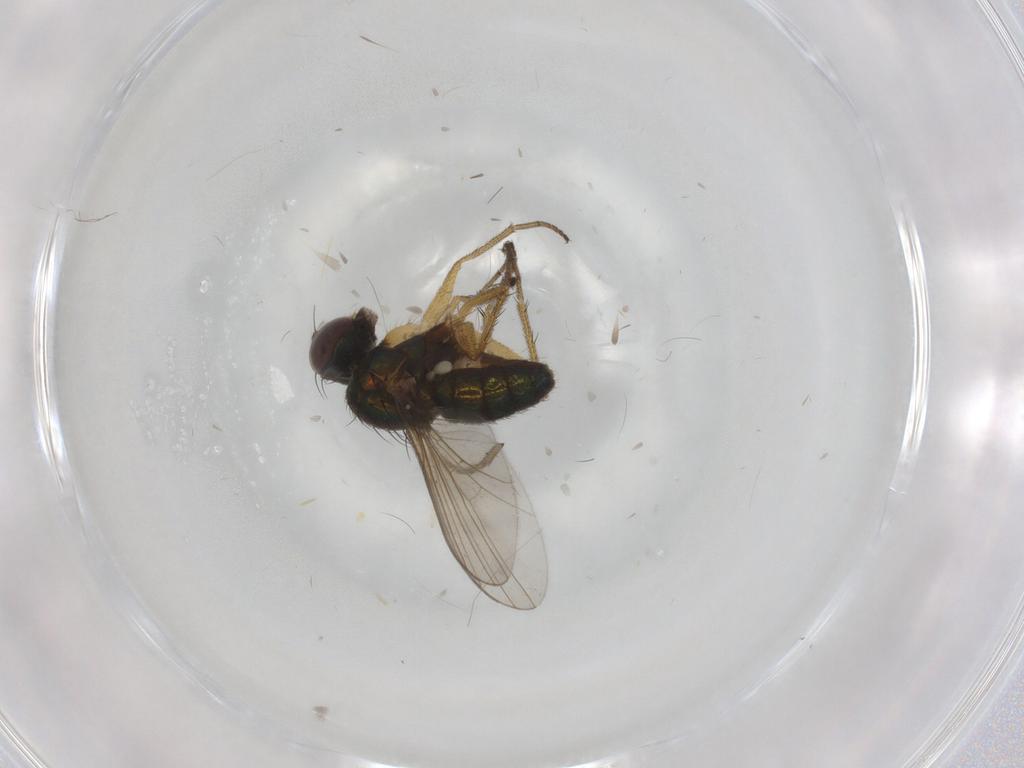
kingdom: Animalia
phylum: Arthropoda
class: Insecta
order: Diptera
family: Chironomidae
